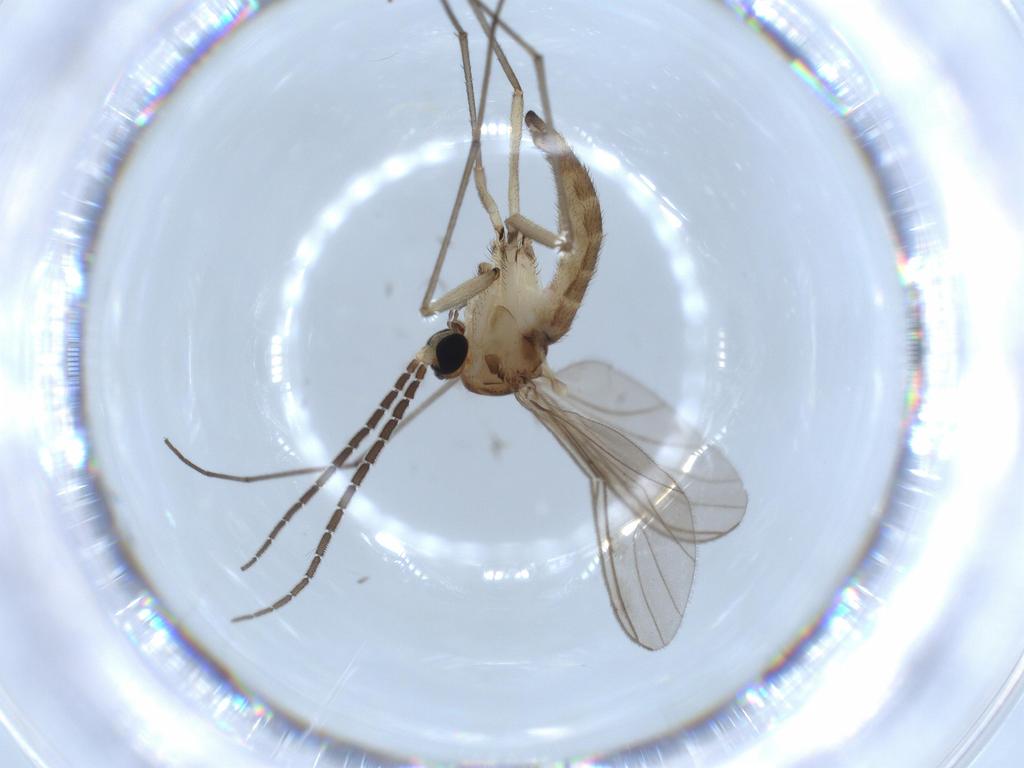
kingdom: Animalia
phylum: Arthropoda
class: Insecta
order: Diptera
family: Sciaridae
